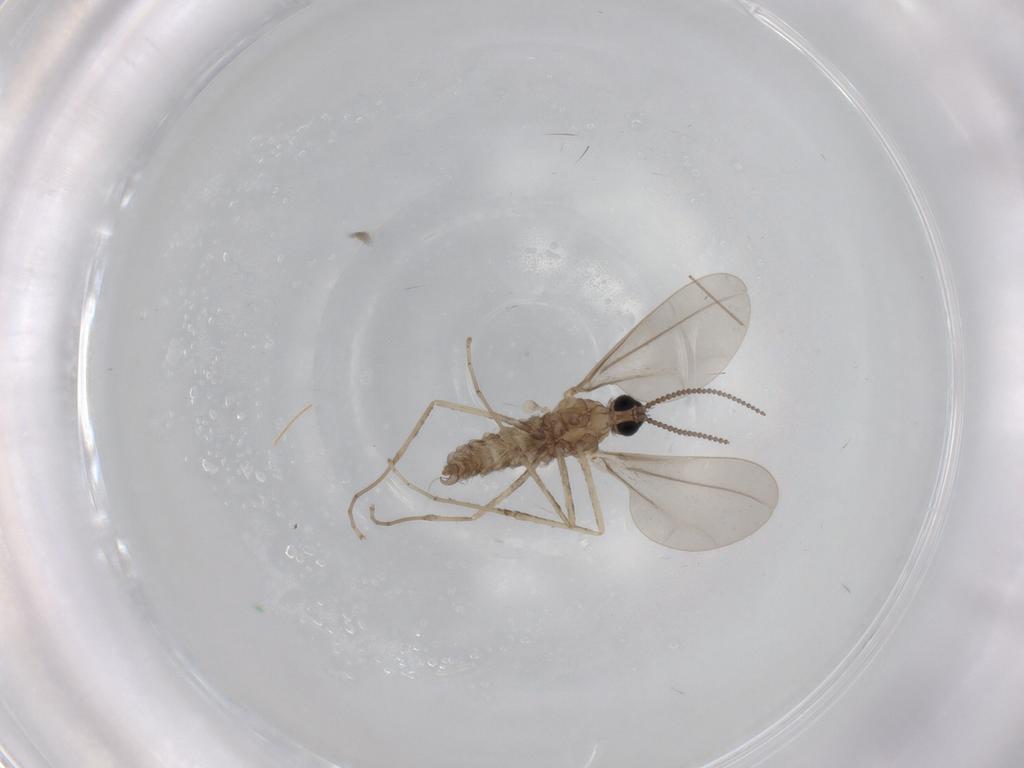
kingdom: Animalia
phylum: Arthropoda
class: Insecta
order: Diptera
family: Cecidomyiidae
